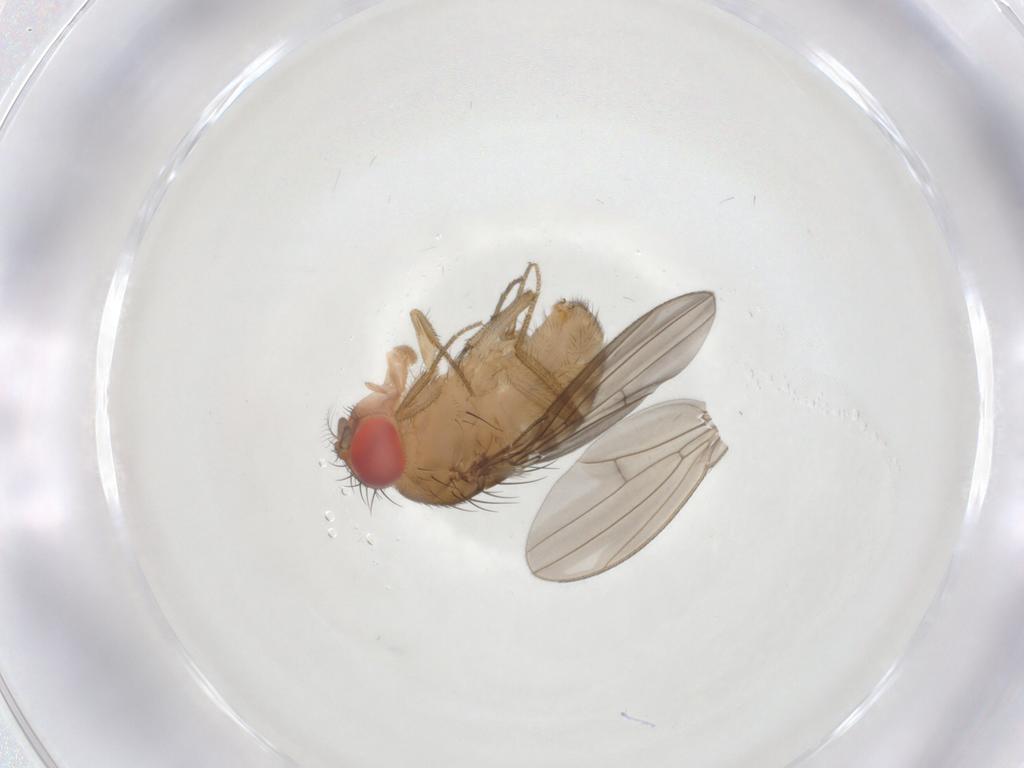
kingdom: Animalia
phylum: Arthropoda
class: Insecta
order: Diptera
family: Drosophilidae
